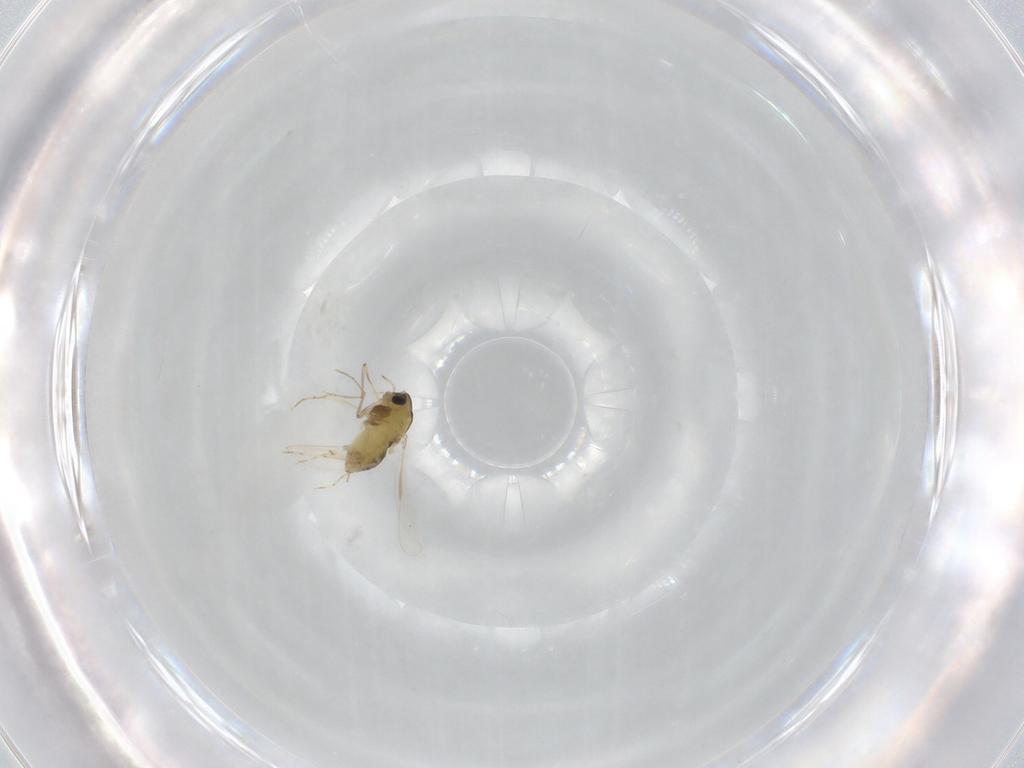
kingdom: Animalia
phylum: Arthropoda
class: Insecta
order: Diptera
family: Chironomidae
